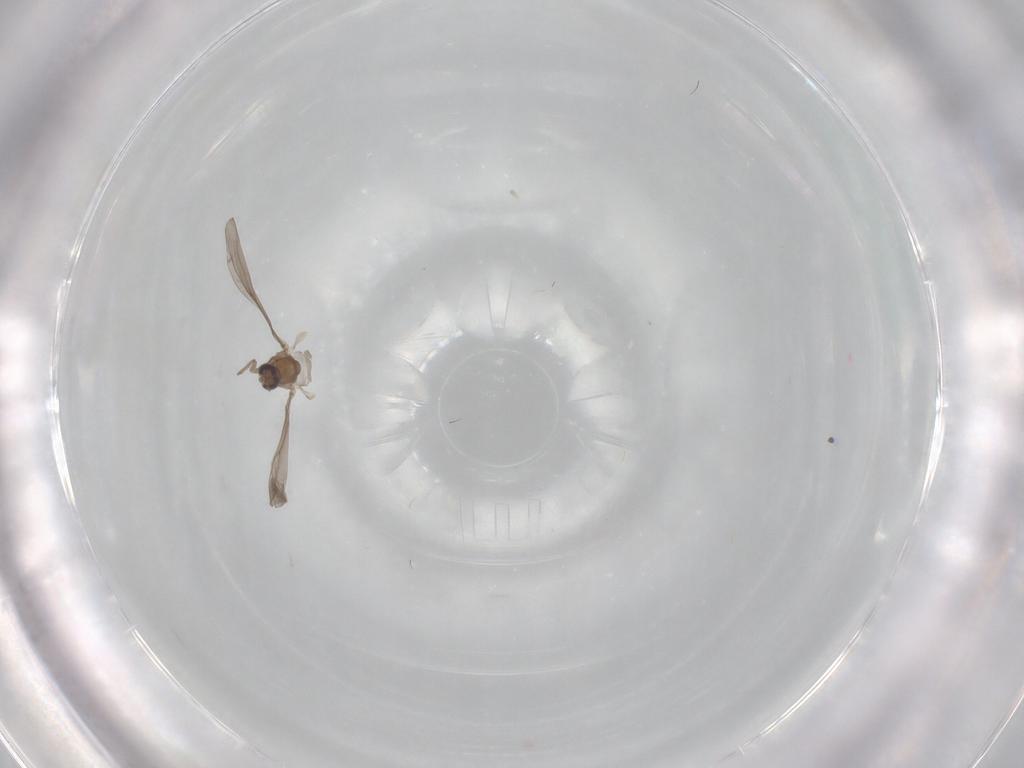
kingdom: Animalia
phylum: Arthropoda
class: Insecta
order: Diptera
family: Cecidomyiidae
